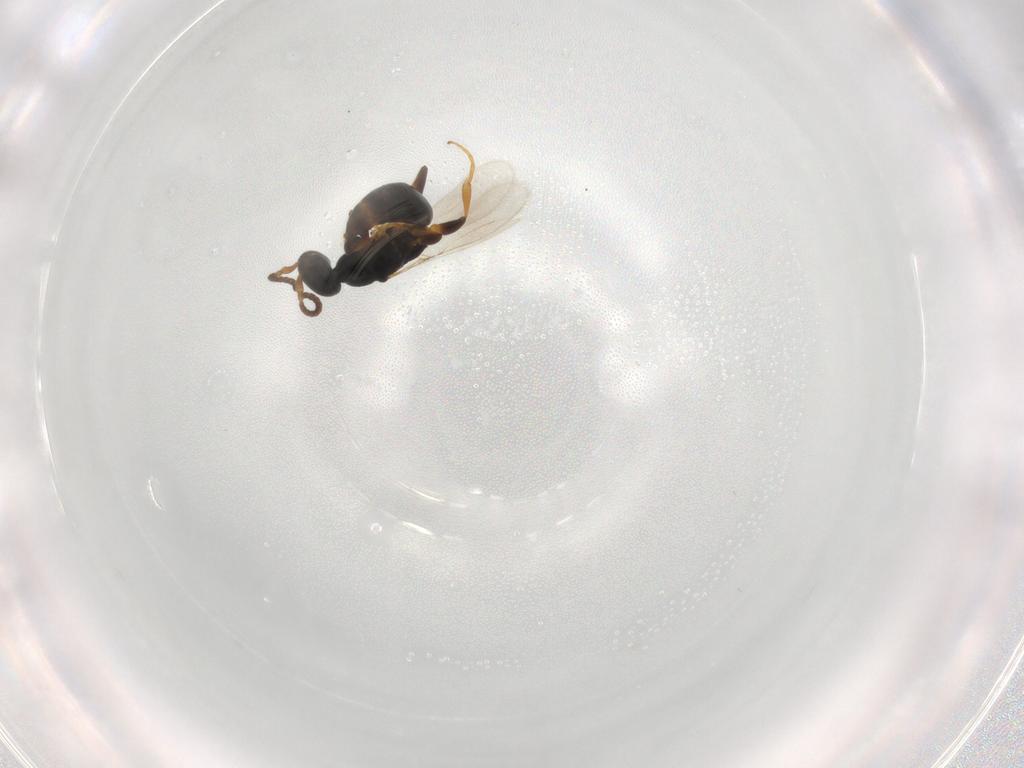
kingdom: Animalia
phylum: Arthropoda
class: Insecta
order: Hymenoptera
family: Bethylidae
